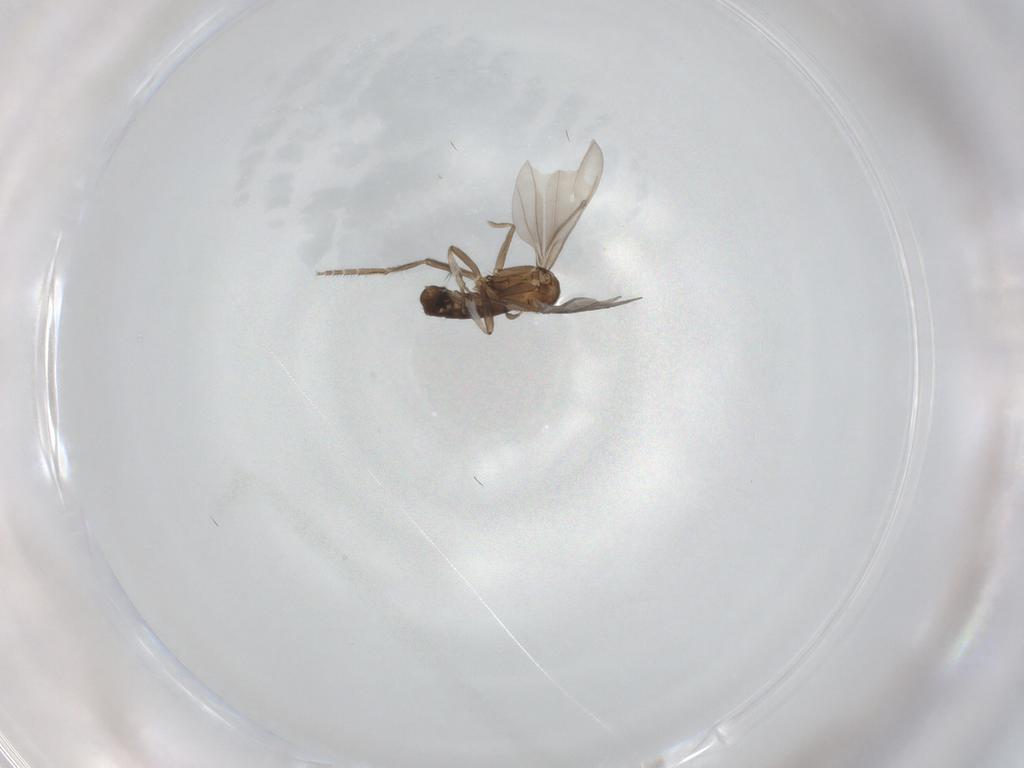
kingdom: Animalia
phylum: Arthropoda
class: Insecta
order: Diptera
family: Phoridae
